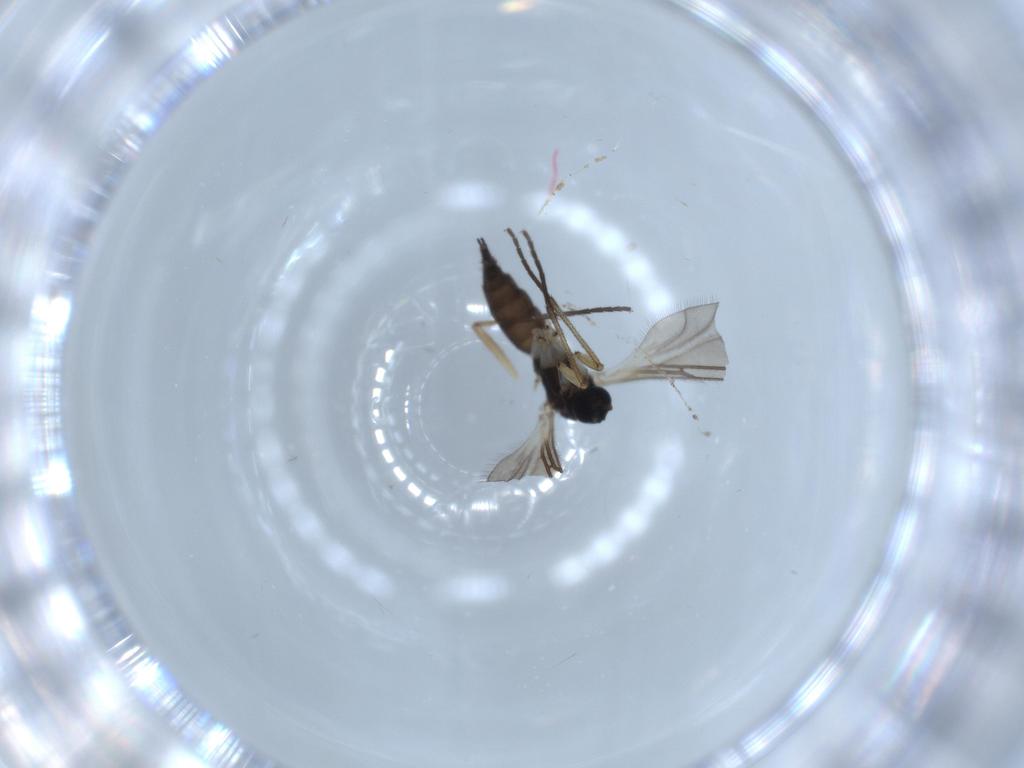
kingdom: Animalia
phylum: Arthropoda
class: Insecta
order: Diptera
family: Sciaridae
